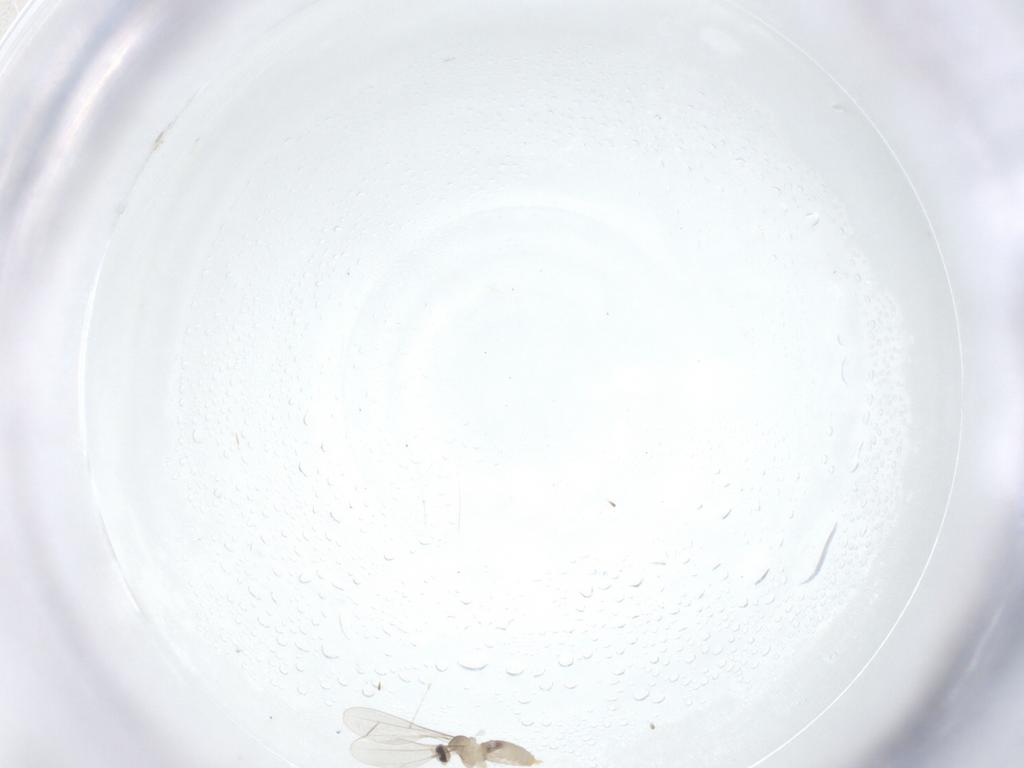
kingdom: Animalia
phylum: Arthropoda
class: Insecta
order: Diptera
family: Cecidomyiidae
